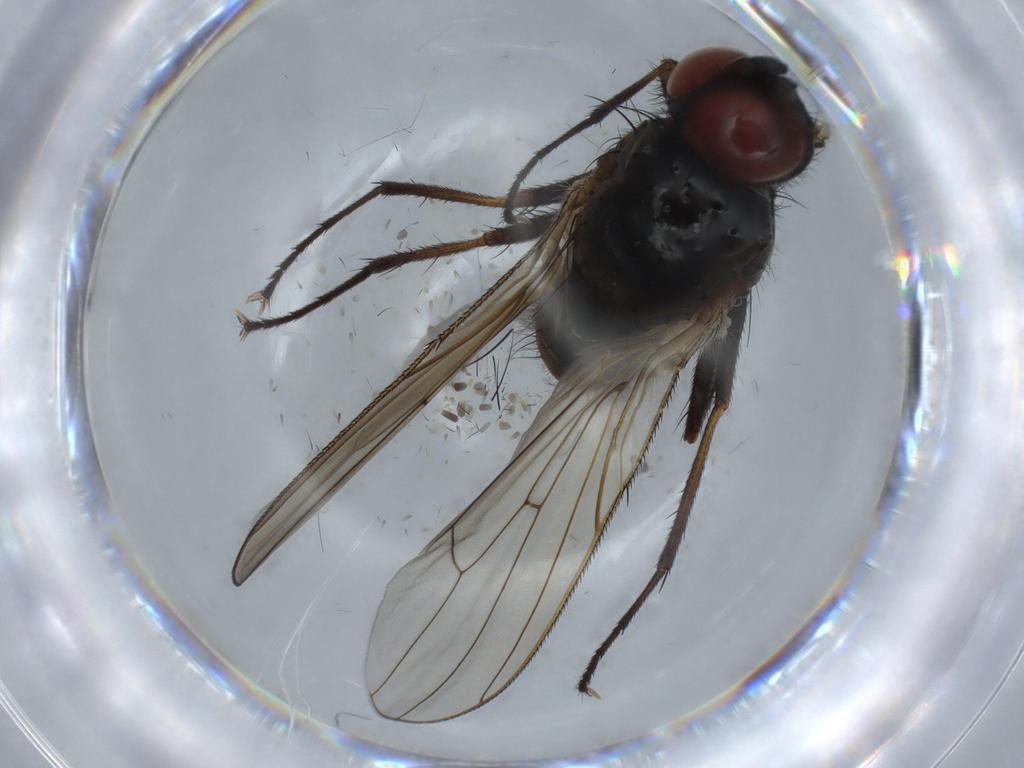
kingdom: Animalia
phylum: Arthropoda
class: Insecta
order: Diptera
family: Anthomyiidae
